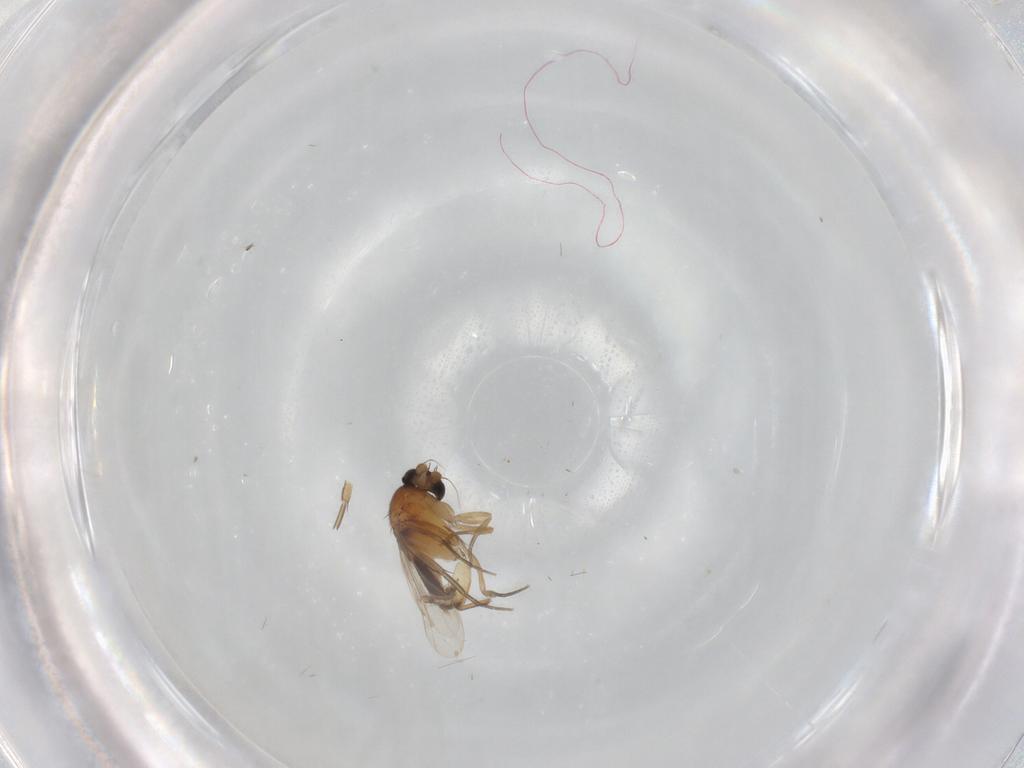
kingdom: Animalia
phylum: Arthropoda
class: Insecta
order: Diptera
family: Phoridae
